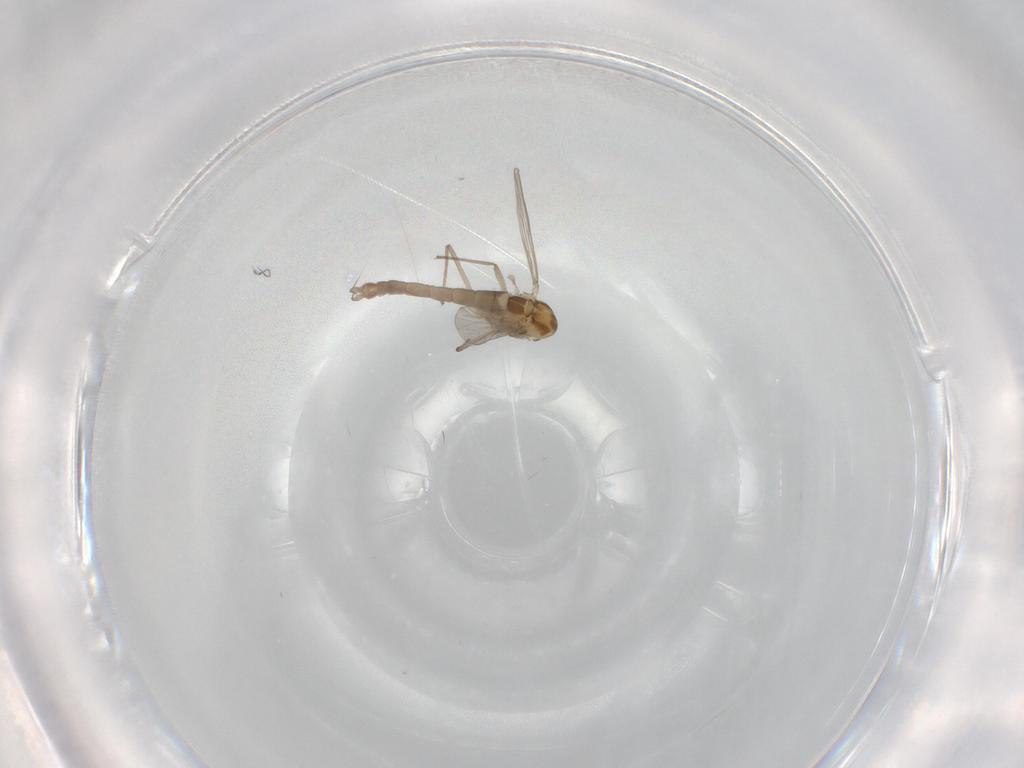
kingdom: Animalia
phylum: Arthropoda
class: Insecta
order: Diptera
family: Chironomidae
